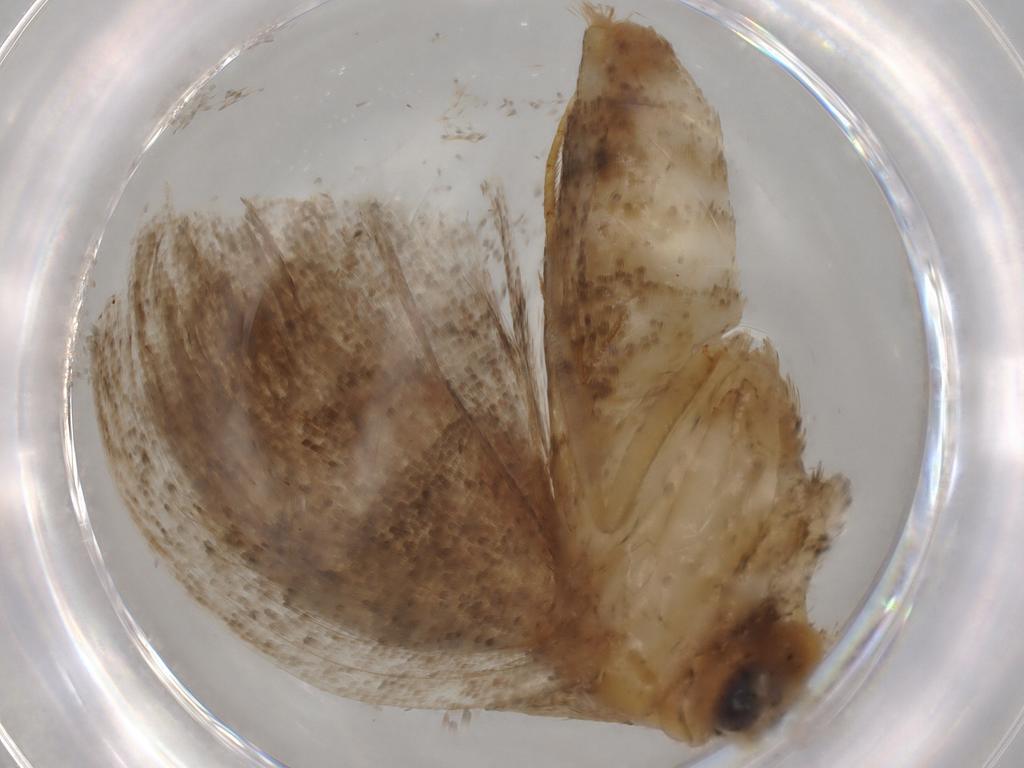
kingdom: Animalia
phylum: Arthropoda
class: Insecta
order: Lepidoptera
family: Noctuidae
